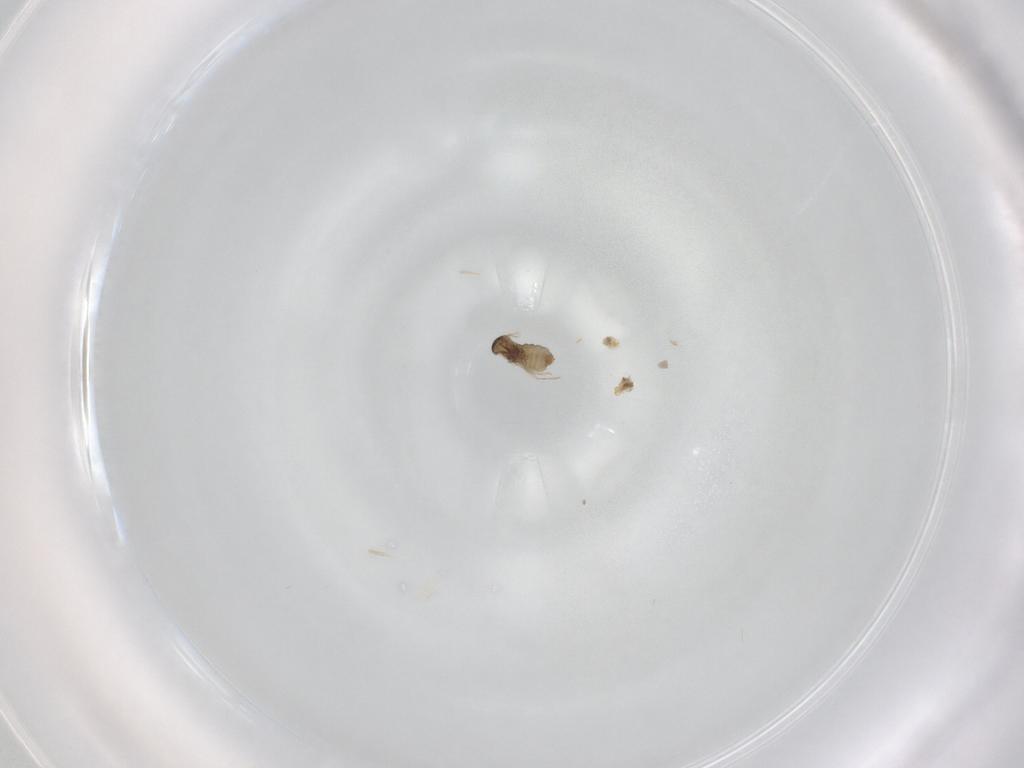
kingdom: Animalia
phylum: Arthropoda
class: Insecta
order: Diptera
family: Glossinidae
